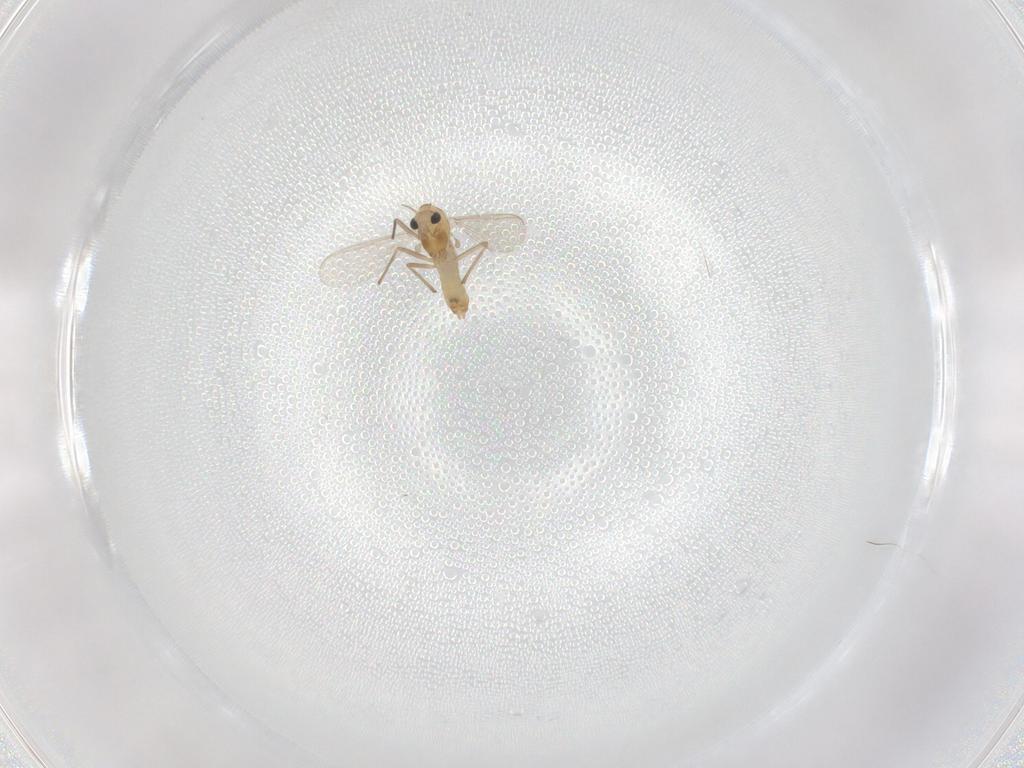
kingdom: Animalia
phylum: Arthropoda
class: Insecta
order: Diptera
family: Chironomidae
